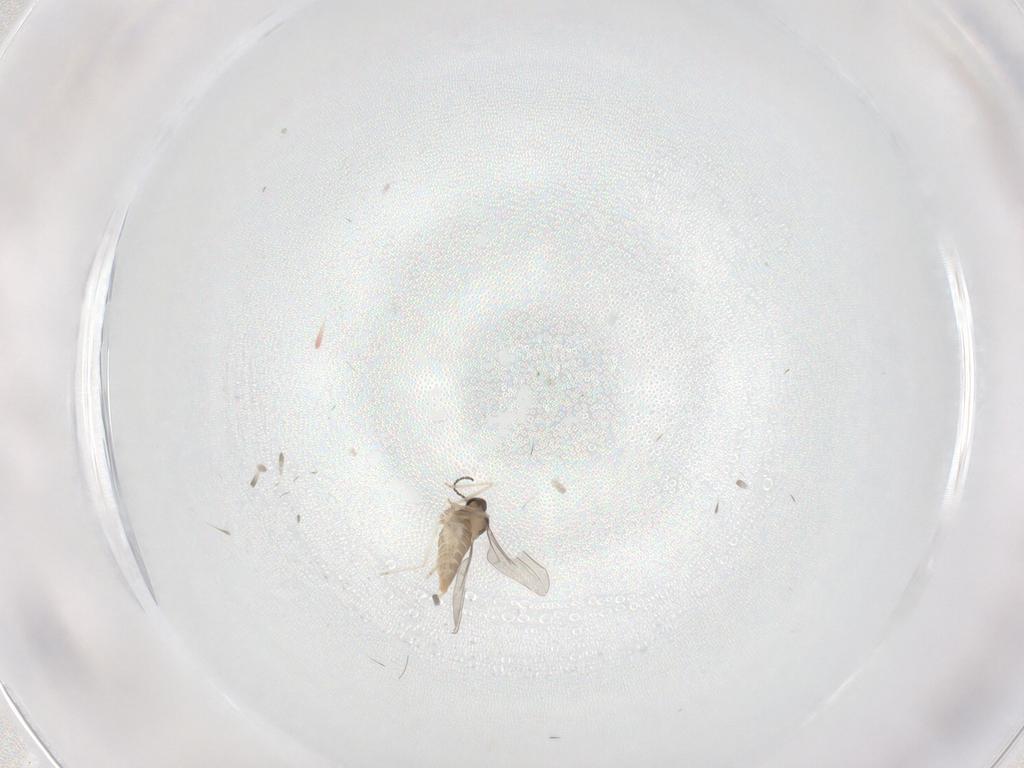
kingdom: Animalia
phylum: Arthropoda
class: Insecta
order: Diptera
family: Cecidomyiidae
